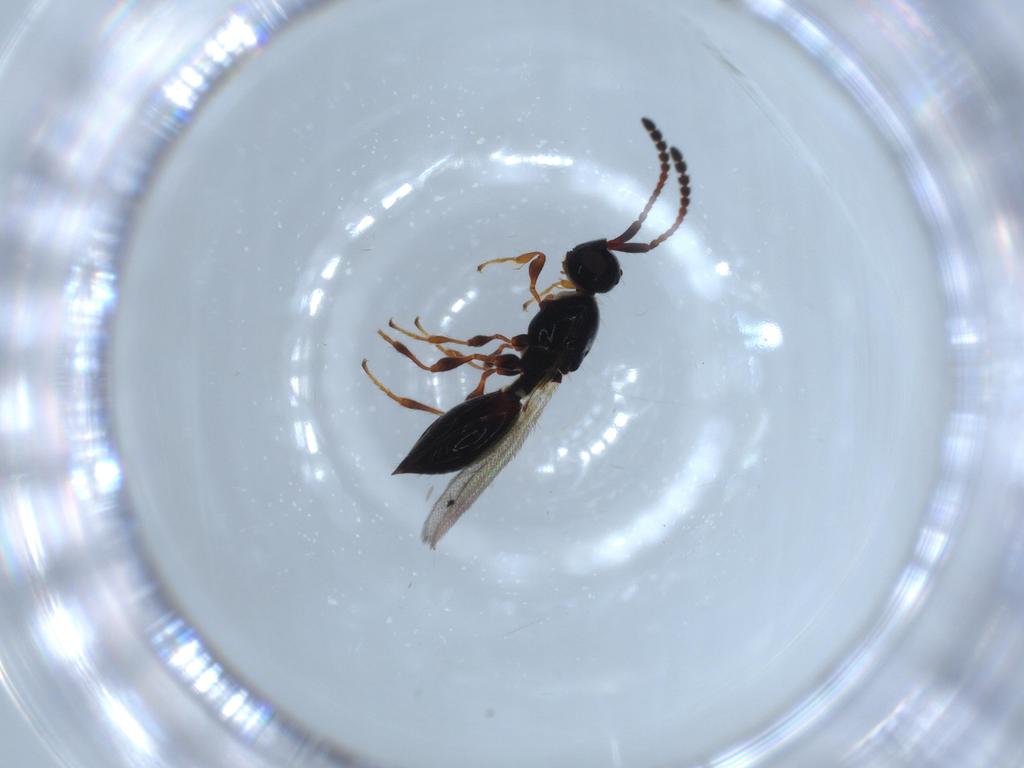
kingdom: Animalia
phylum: Arthropoda
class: Insecta
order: Hymenoptera
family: Diapriidae
